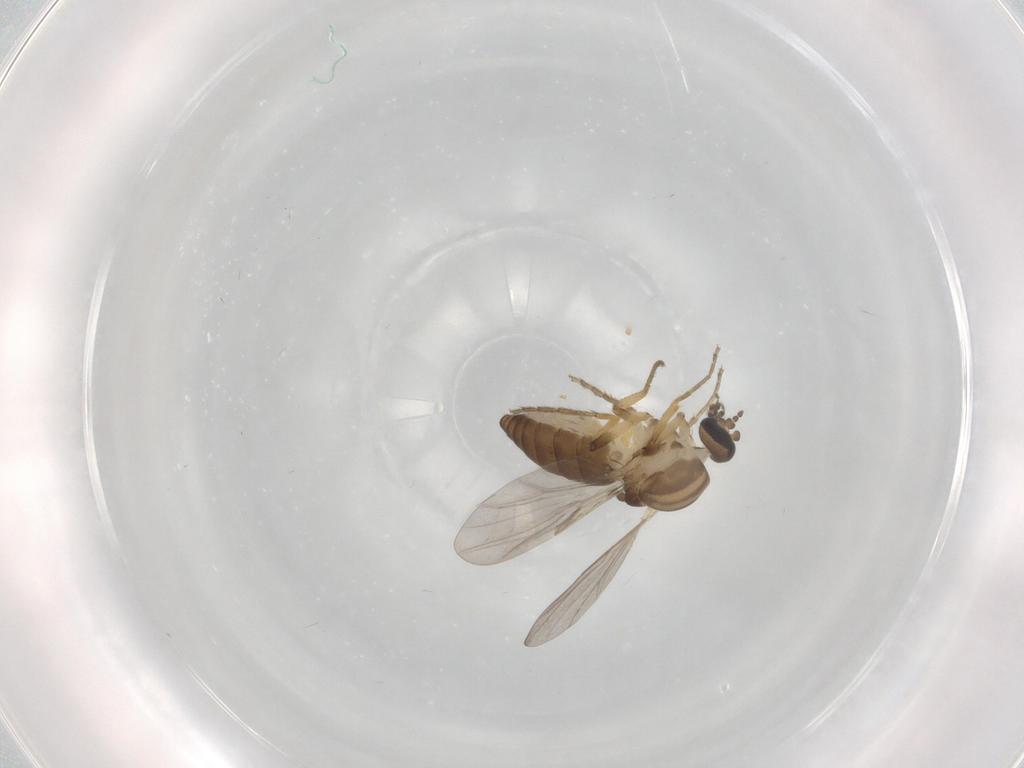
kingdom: Animalia
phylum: Arthropoda
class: Insecta
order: Diptera
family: Ceratopogonidae
